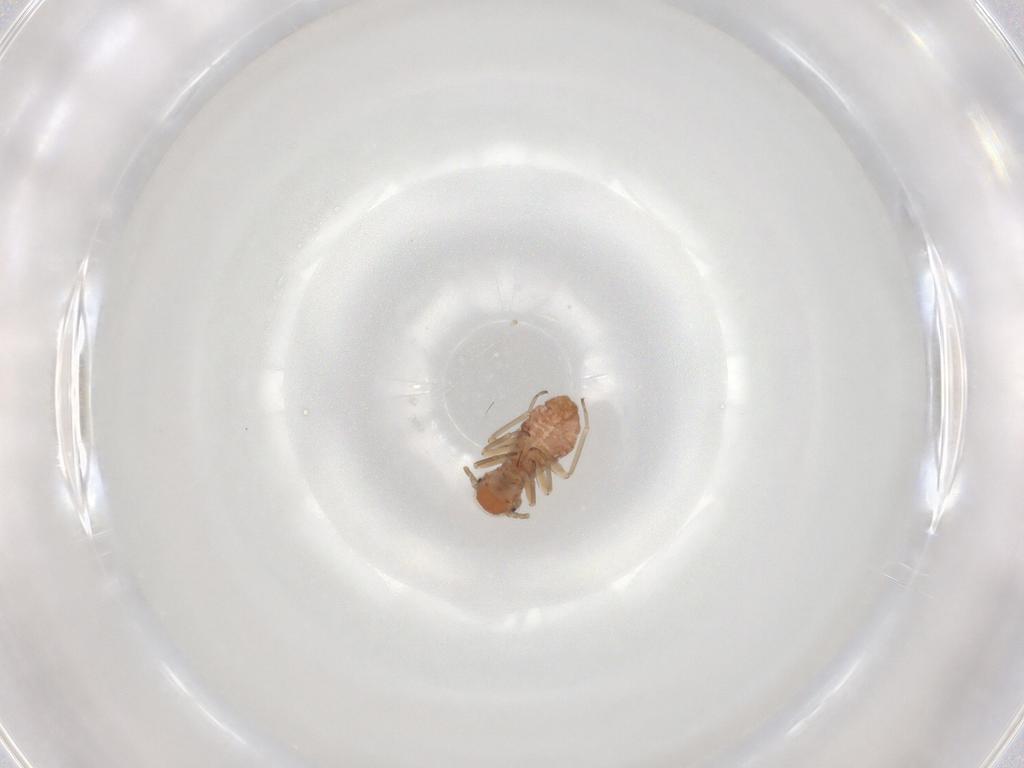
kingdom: Animalia
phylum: Arthropoda
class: Insecta
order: Psocodea
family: Caeciliusidae
